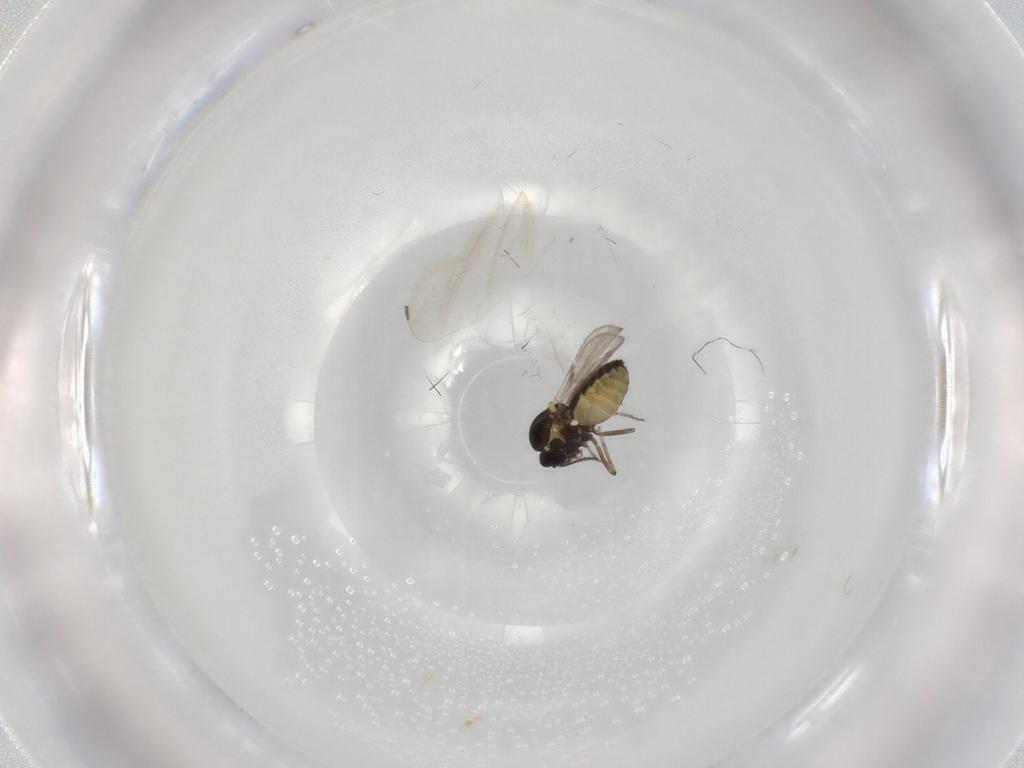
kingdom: Animalia
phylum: Arthropoda
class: Insecta
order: Diptera
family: Ceratopogonidae
